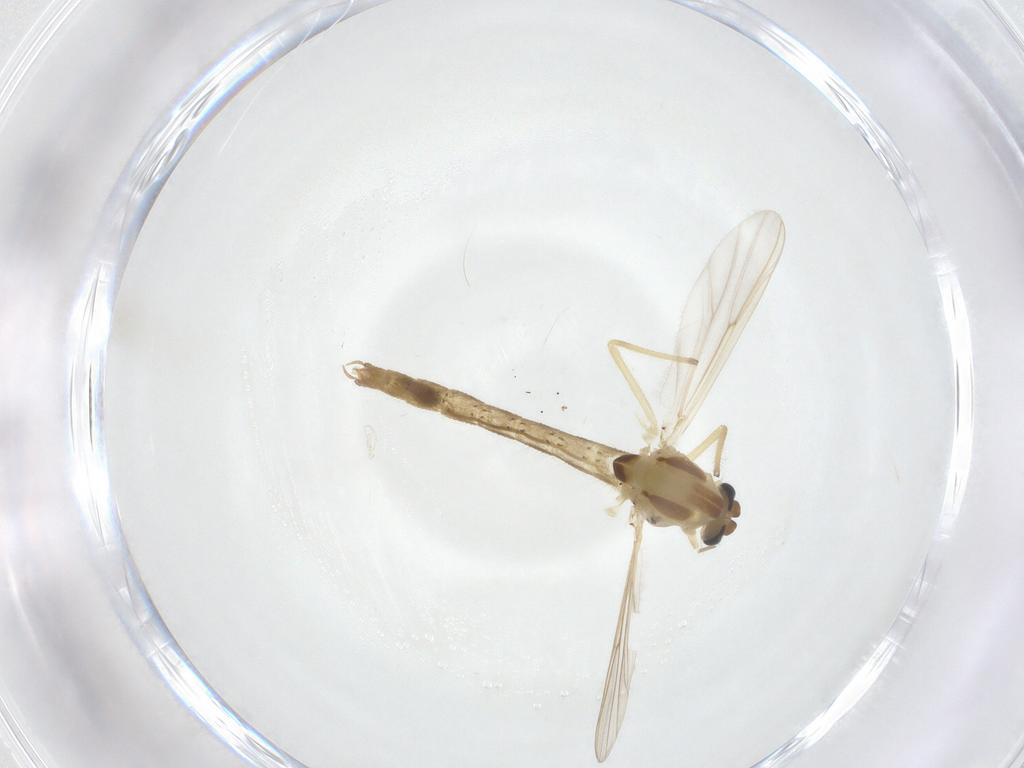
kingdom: Animalia
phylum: Arthropoda
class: Insecta
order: Diptera
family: Chironomidae
